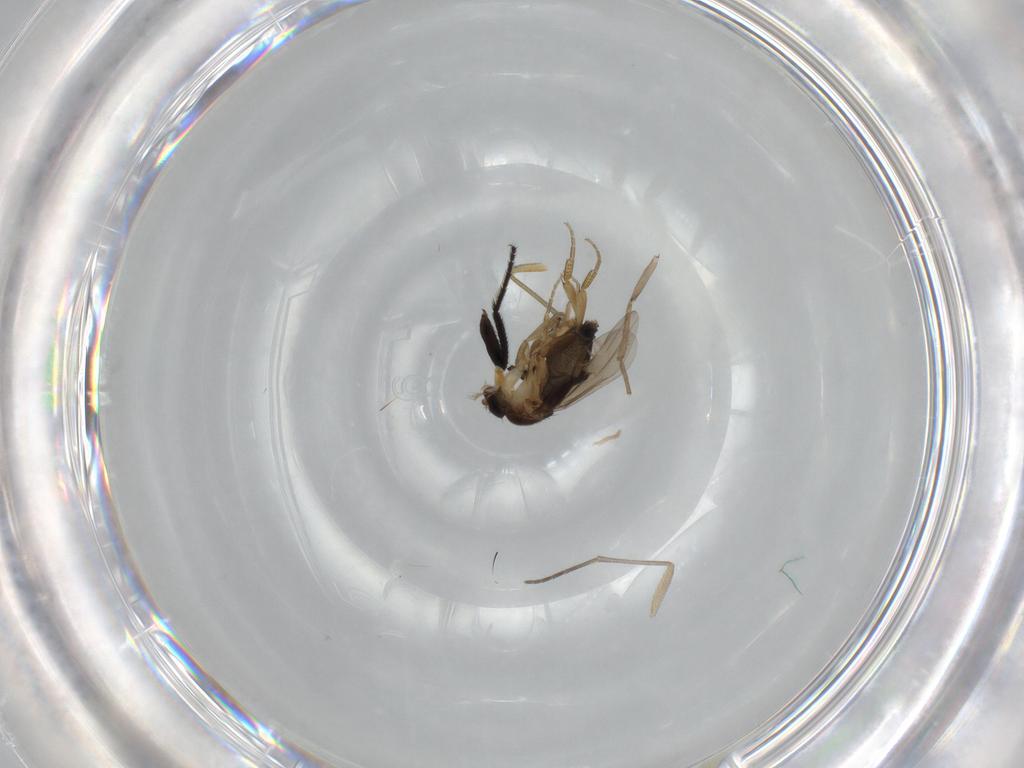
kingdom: Animalia
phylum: Arthropoda
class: Insecta
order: Diptera
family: Phoridae
